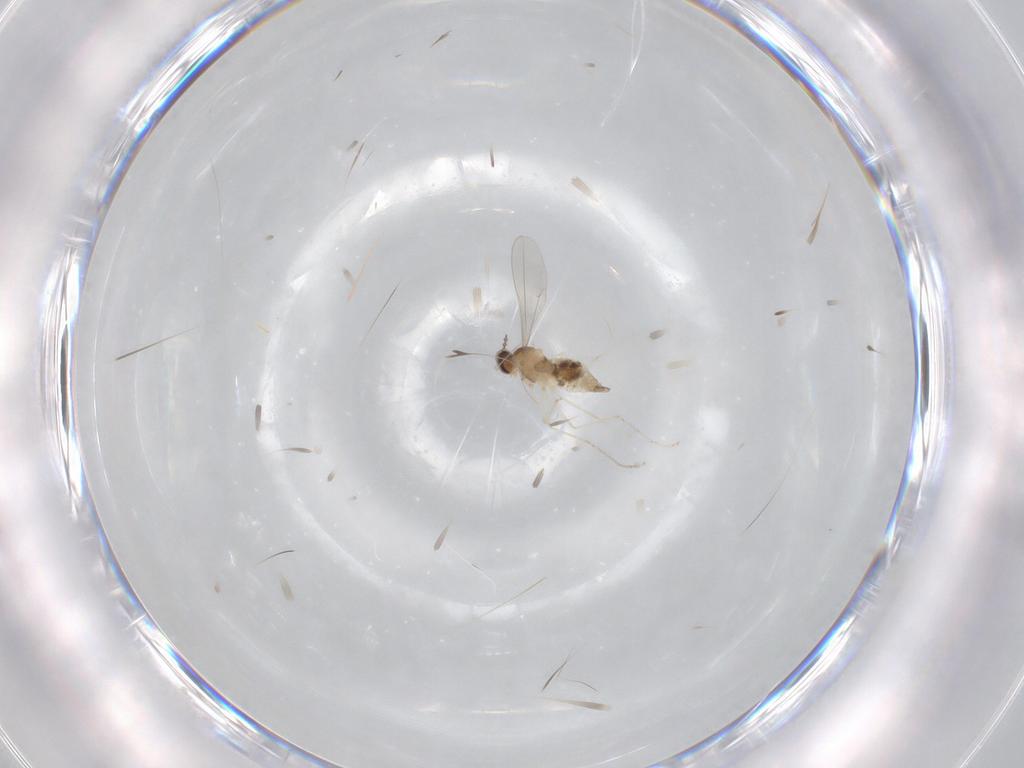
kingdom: Animalia
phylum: Arthropoda
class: Insecta
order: Diptera
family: Cecidomyiidae
